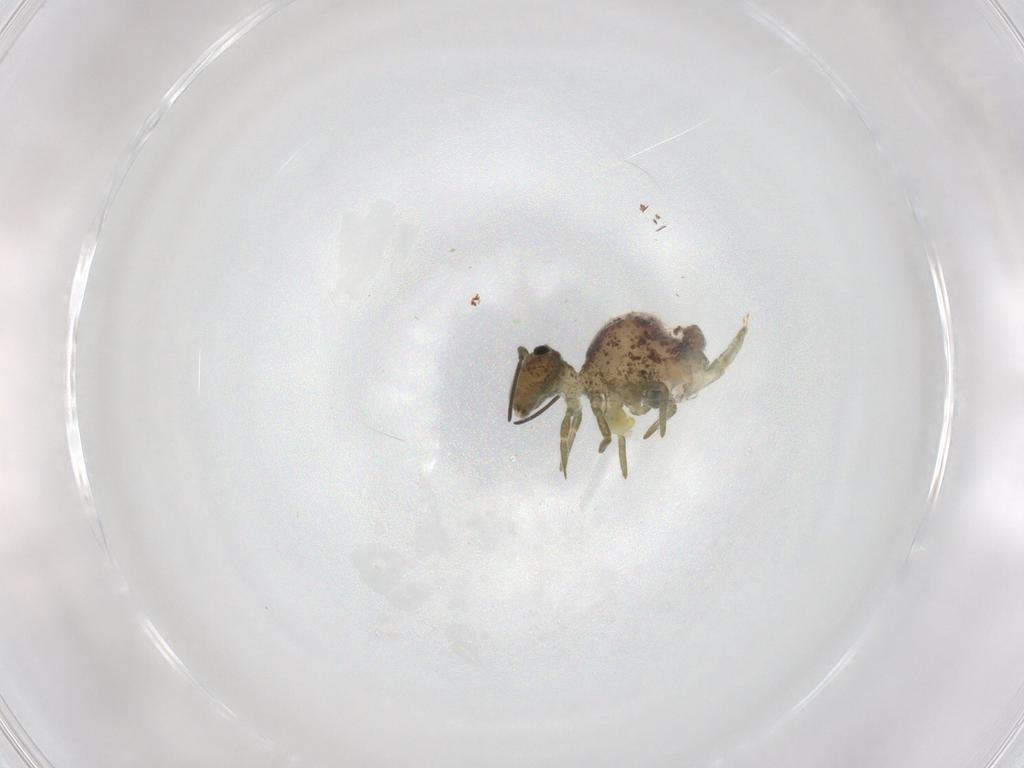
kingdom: Animalia
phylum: Arthropoda
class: Collembola
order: Symphypleona
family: Sminthuridae
